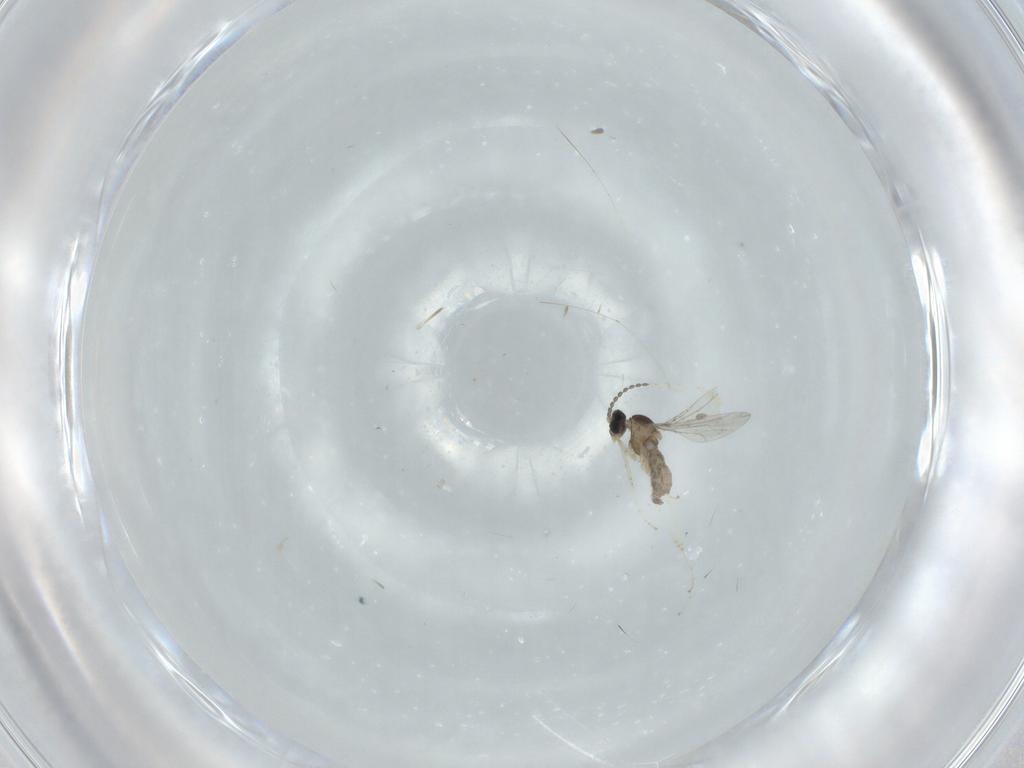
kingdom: Animalia
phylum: Arthropoda
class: Insecta
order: Diptera
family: Cecidomyiidae
